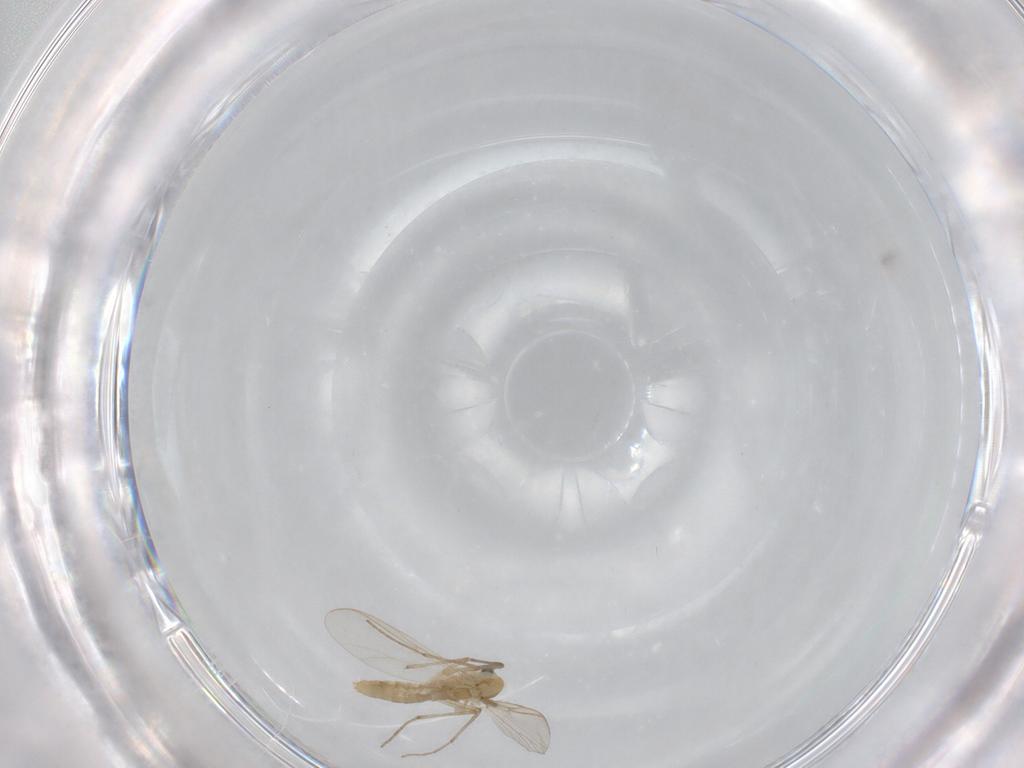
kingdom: Animalia
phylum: Arthropoda
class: Insecta
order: Diptera
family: Chironomidae
